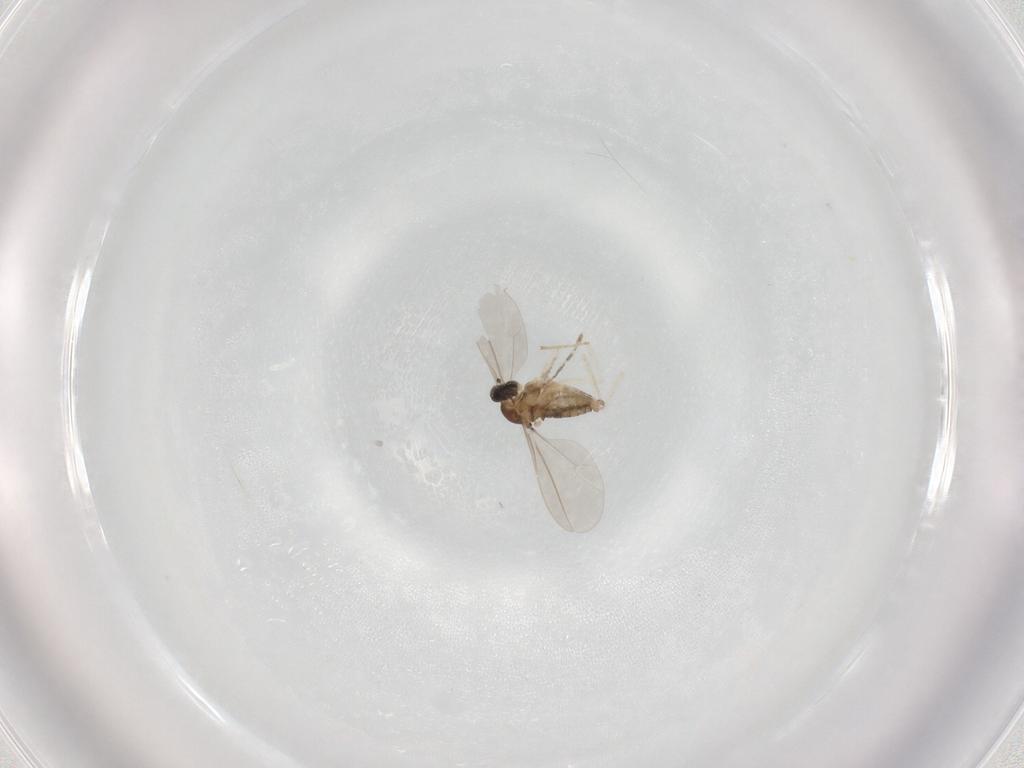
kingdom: Animalia
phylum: Arthropoda
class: Insecta
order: Diptera
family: Cecidomyiidae
